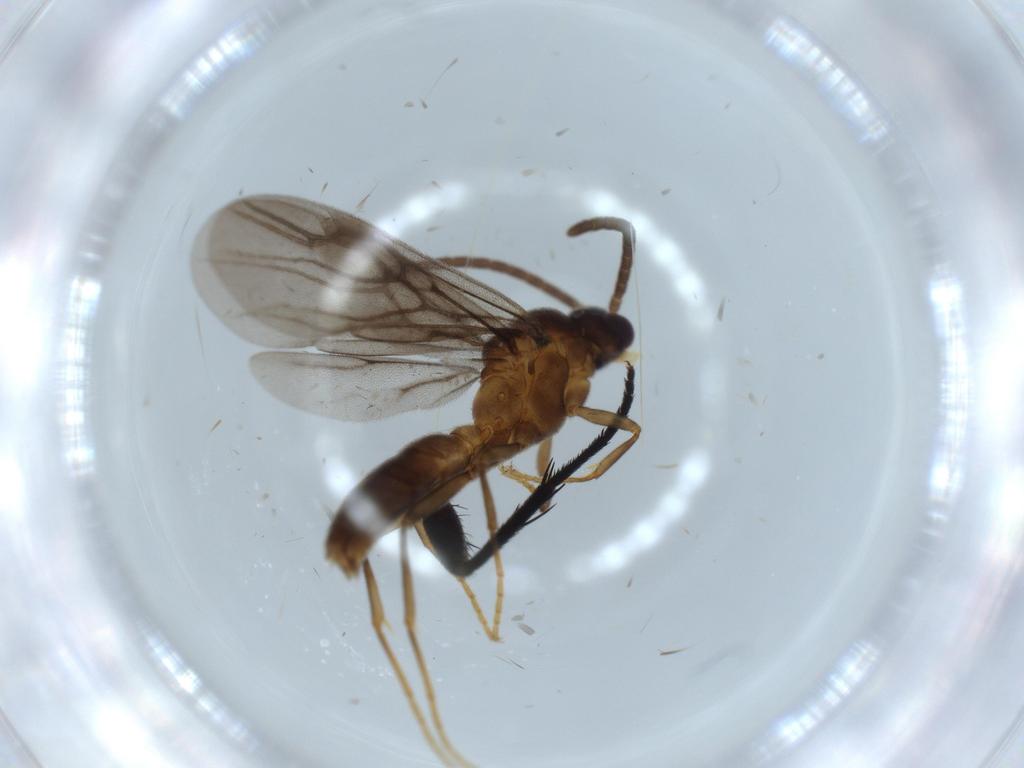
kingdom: Animalia
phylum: Arthropoda
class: Insecta
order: Hymenoptera
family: Formicidae
